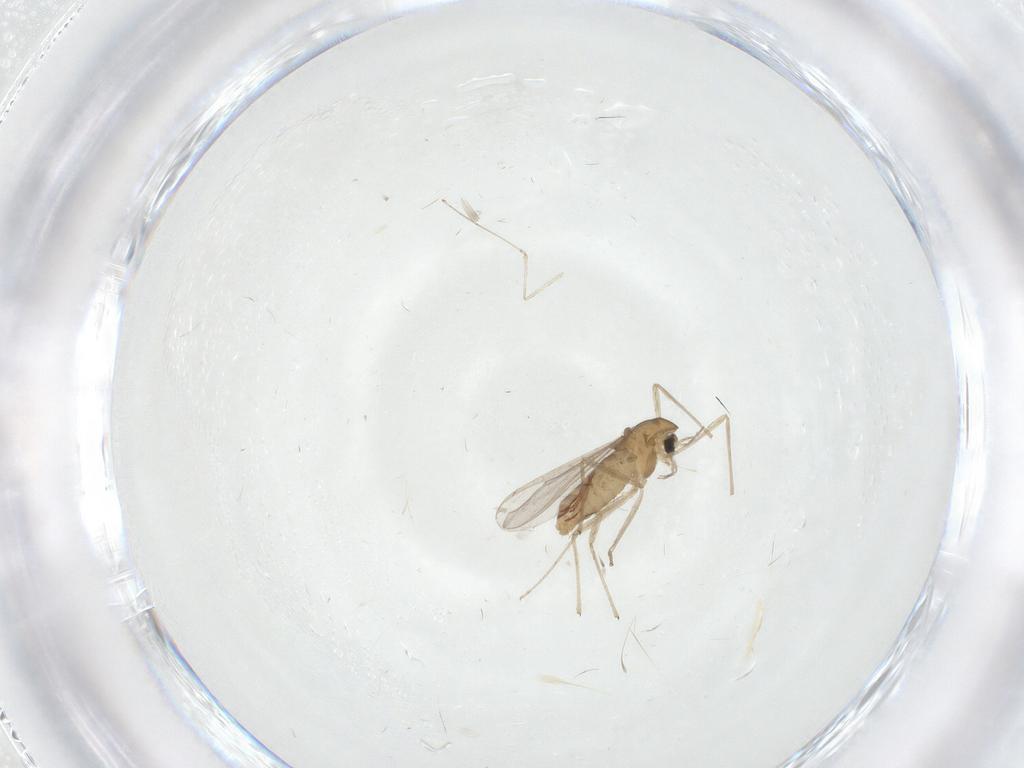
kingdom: Animalia
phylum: Arthropoda
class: Insecta
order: Diptera
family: Chironomidae
